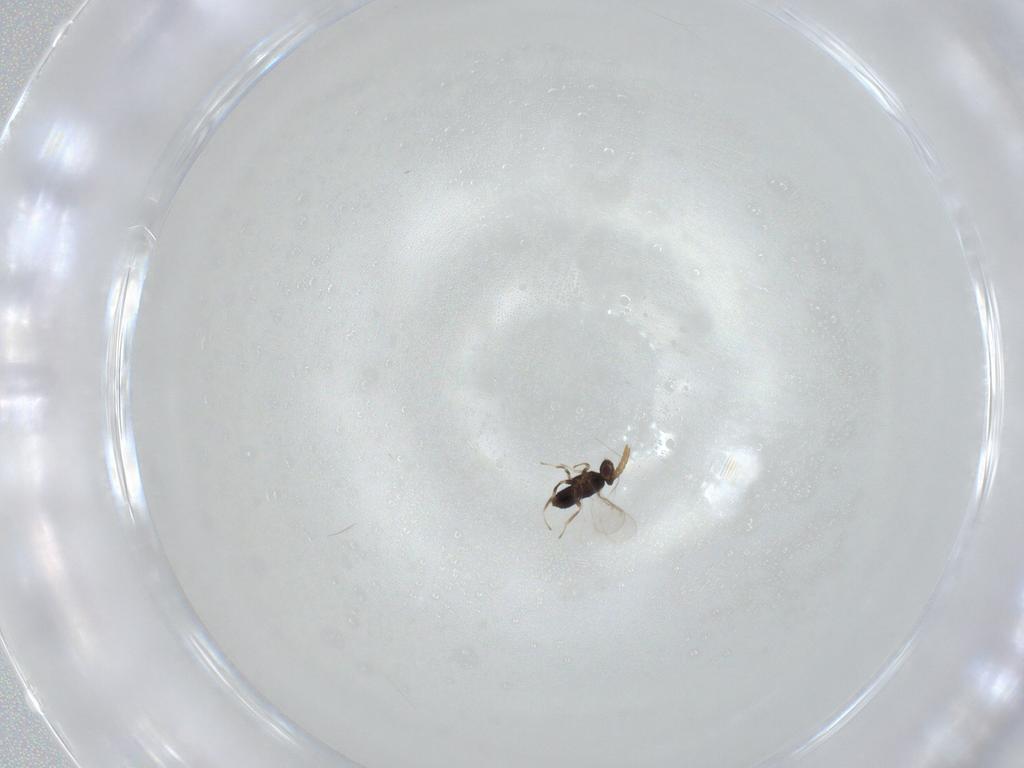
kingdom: Animalia
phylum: Arthropoda
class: Insecta
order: Hymenoptera
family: Aphelinidae
